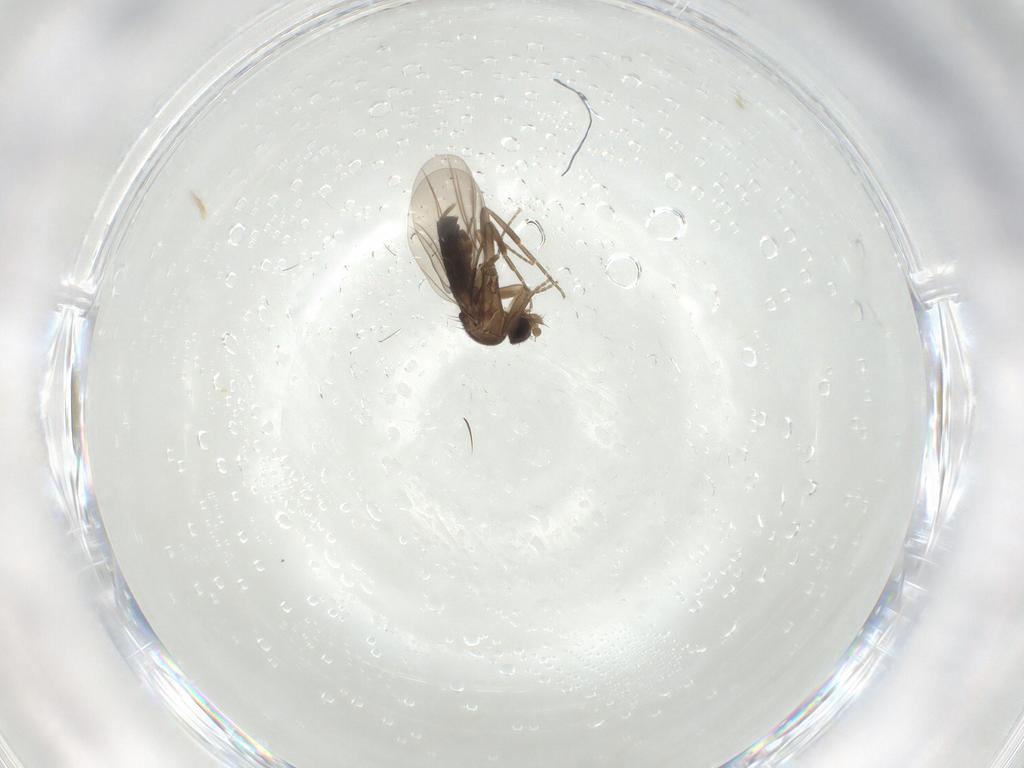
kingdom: Animalia
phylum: Arthropoda
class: Insecta
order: Diptera
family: Phoridae
